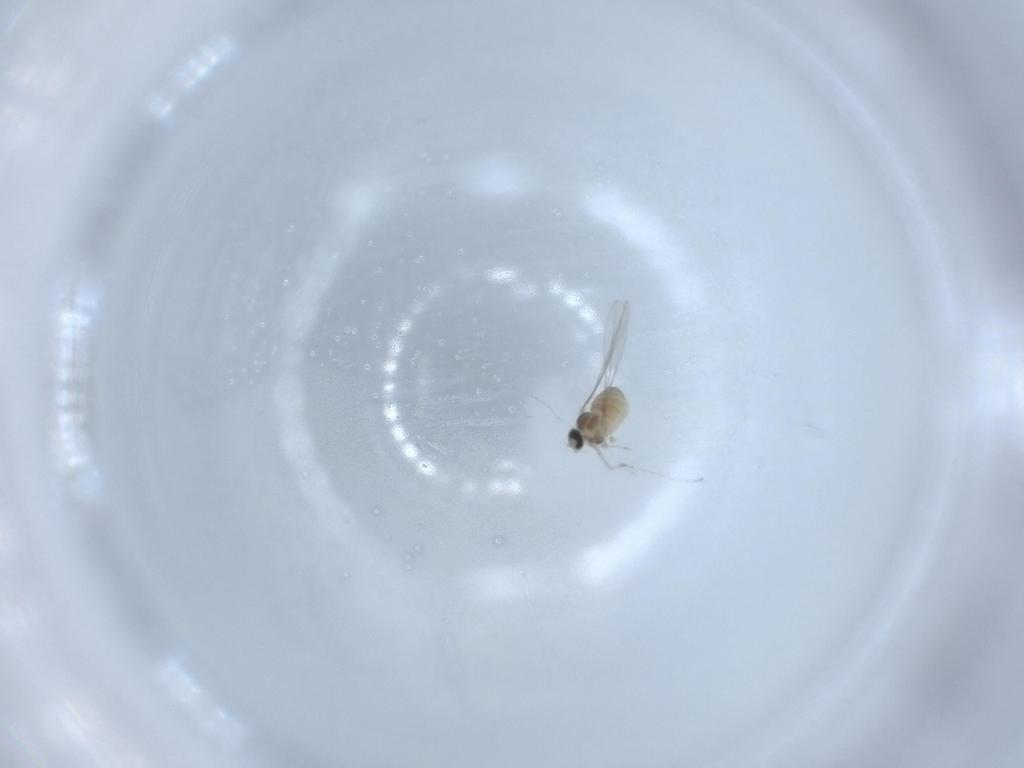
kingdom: Animalia
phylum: Arthropoda
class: Insecta
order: Diptera
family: Cecidomyiidae
